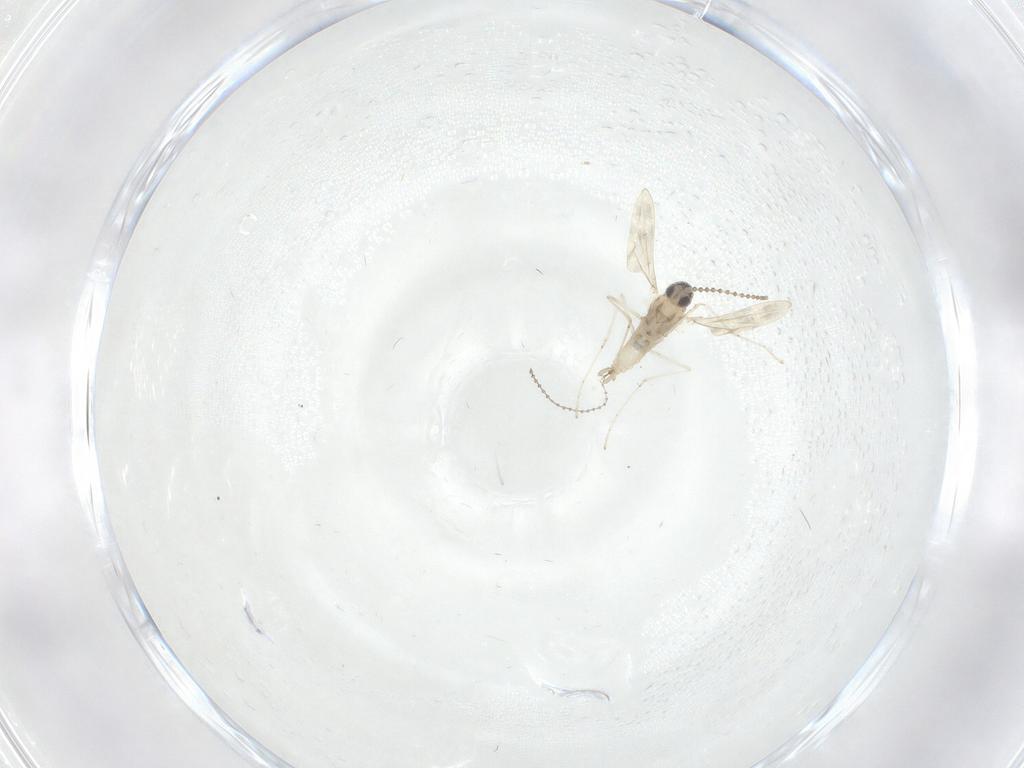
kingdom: Animalia
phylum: Arthropoda
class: Insecta
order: Diptera
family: Cecidomyiidae
